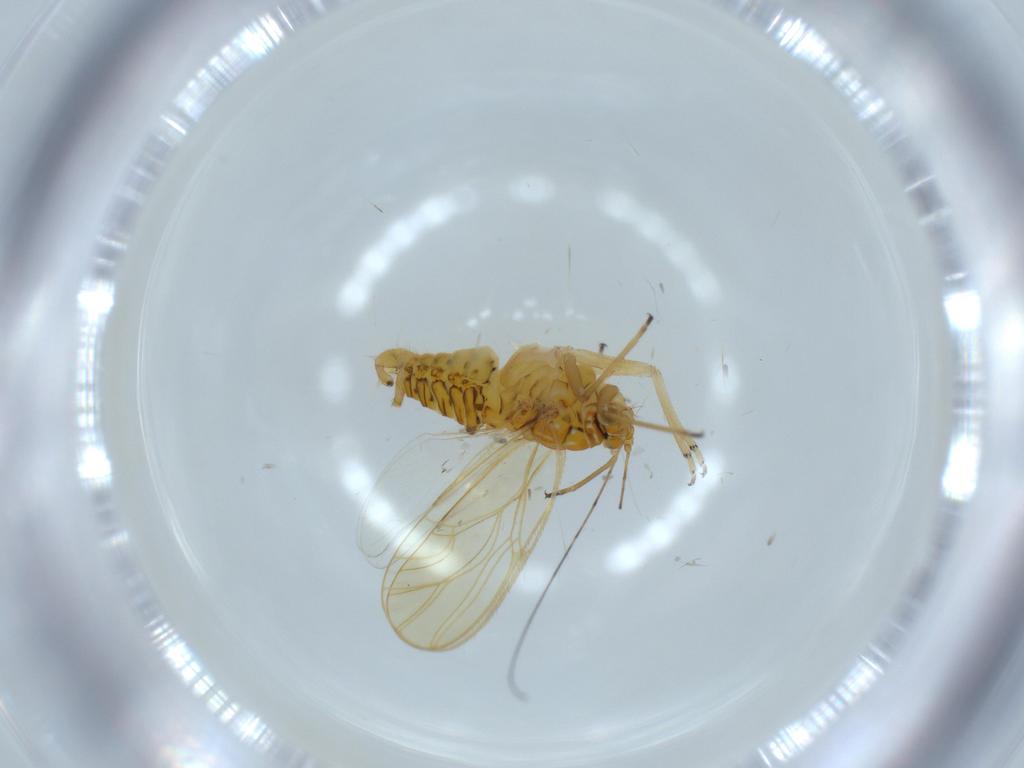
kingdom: Animalia
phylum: Arthropoda
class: Insecta
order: Hemiptera
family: Psyllidae
